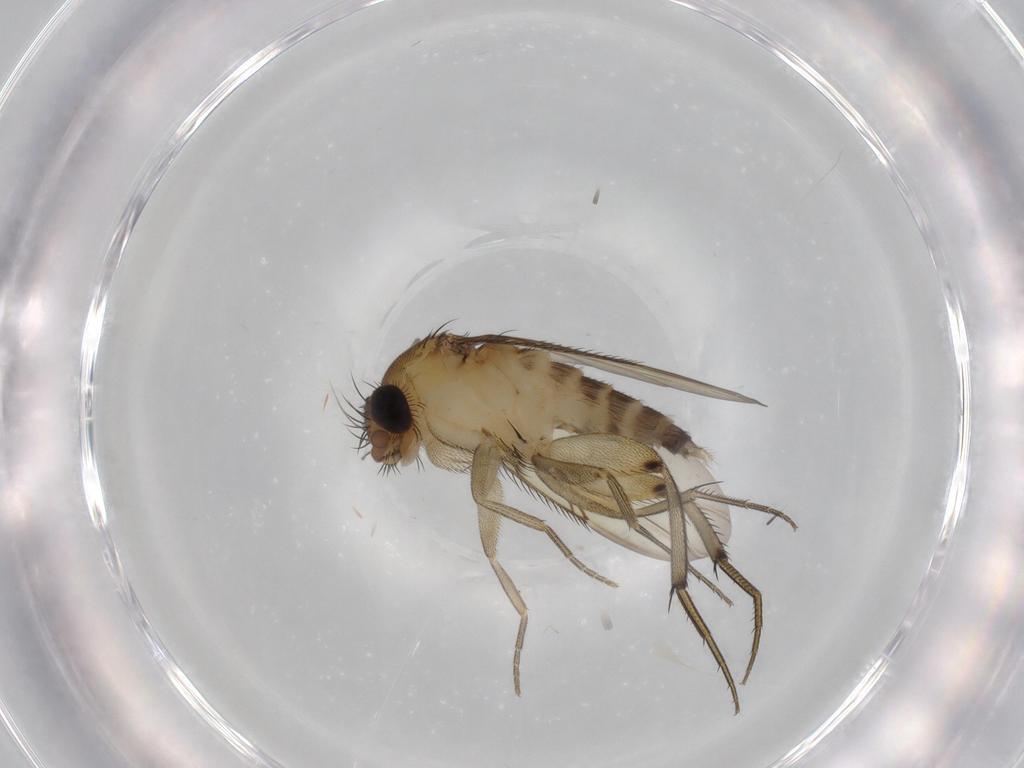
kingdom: Animalia
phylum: Arthropoda
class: Insecta
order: Diptera
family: Phoridae
